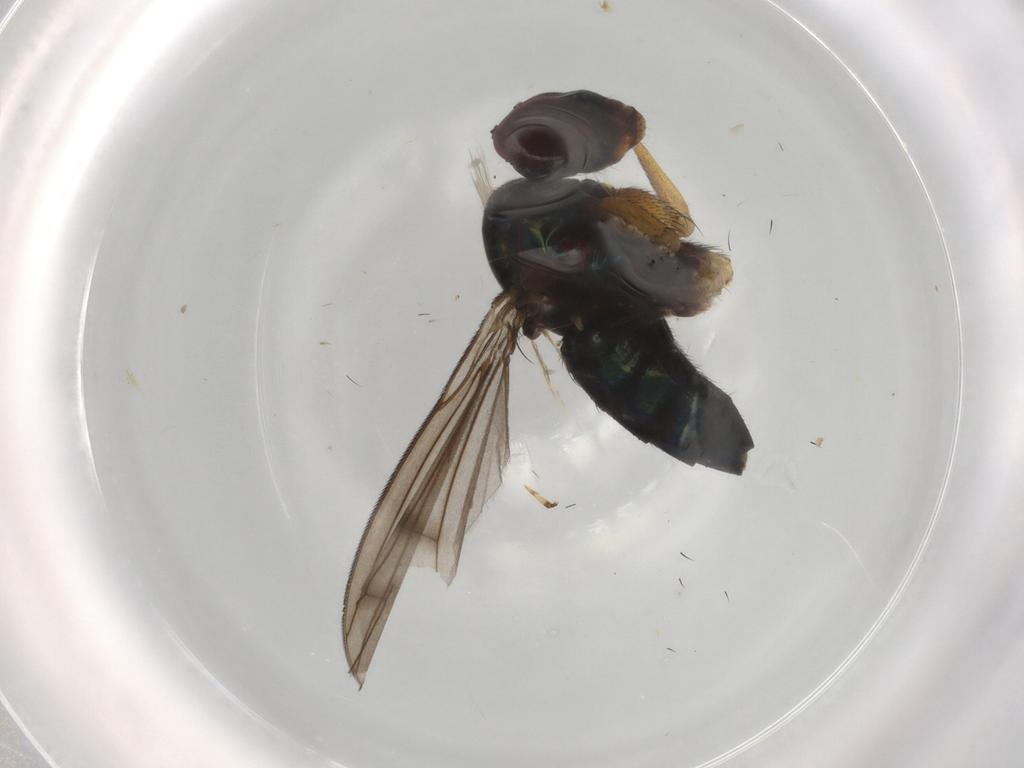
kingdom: Animalia
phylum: Arthropoda
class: Insecta
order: Diptera
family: Dolichopodidae
